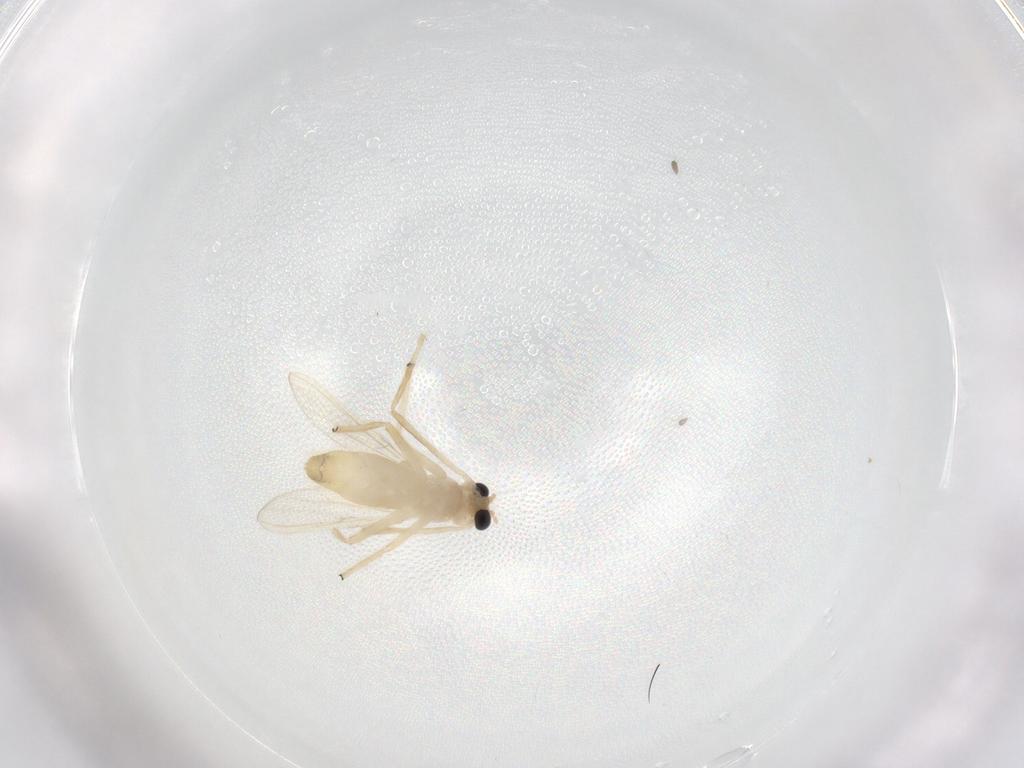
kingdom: Animalia
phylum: Arthropoda
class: Insecta
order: Diptera
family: Chironomidae
